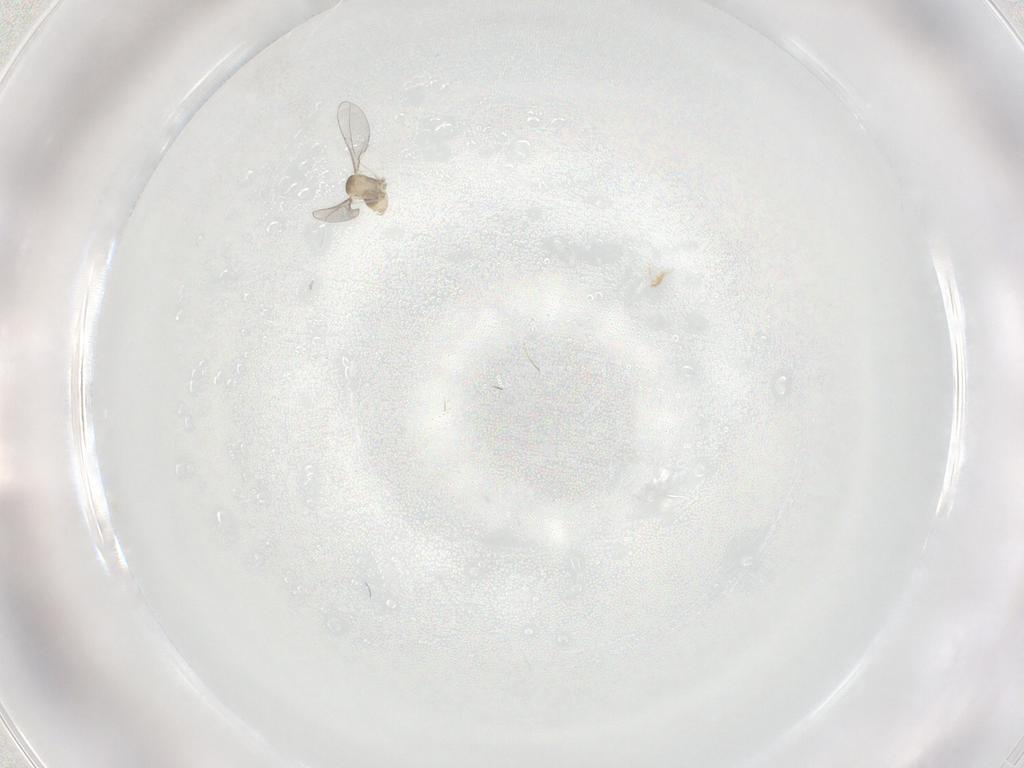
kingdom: Animalia
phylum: Arthropoda
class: Insecta
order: Diptera
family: Cecidomyiidae
